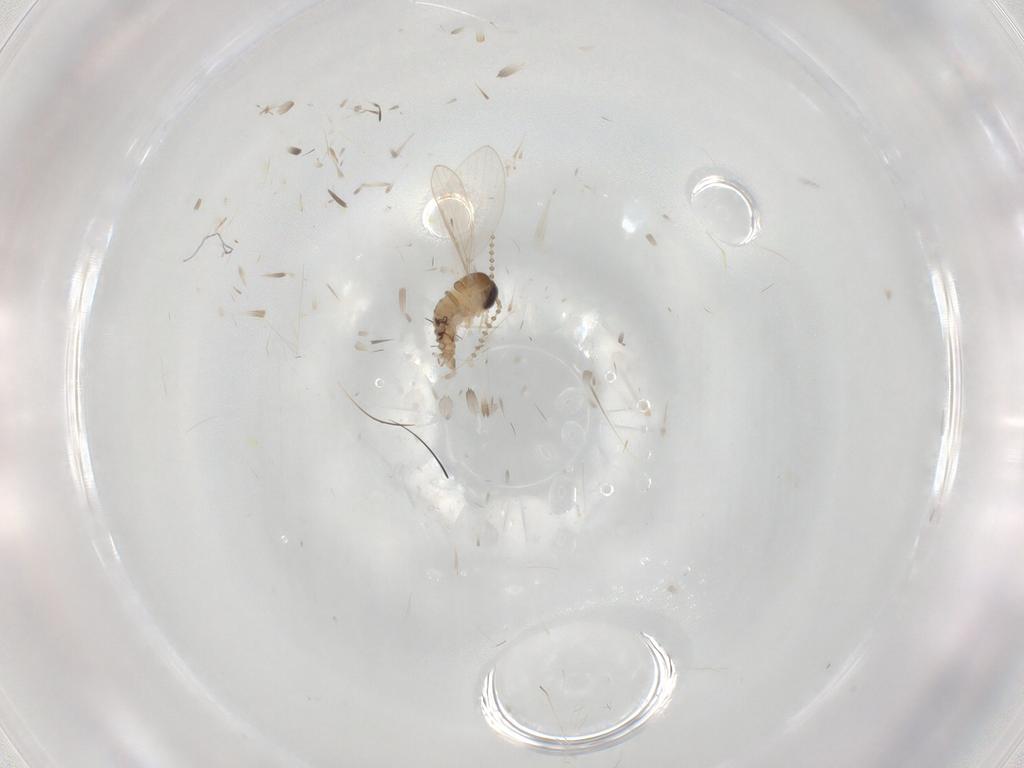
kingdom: Animalia
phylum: Arthropoda
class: Insecta
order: Diptera
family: Psychodidae
